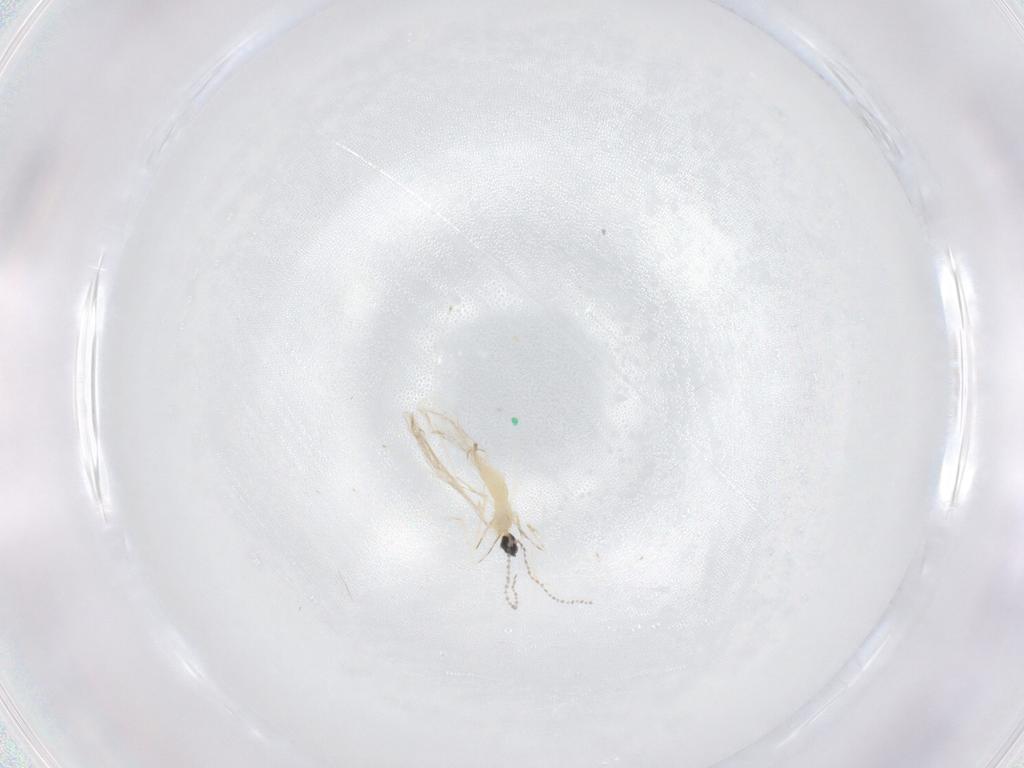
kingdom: Animalia
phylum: Arthropoda
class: Insecta
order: Diptera
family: Cecidomyiidae
